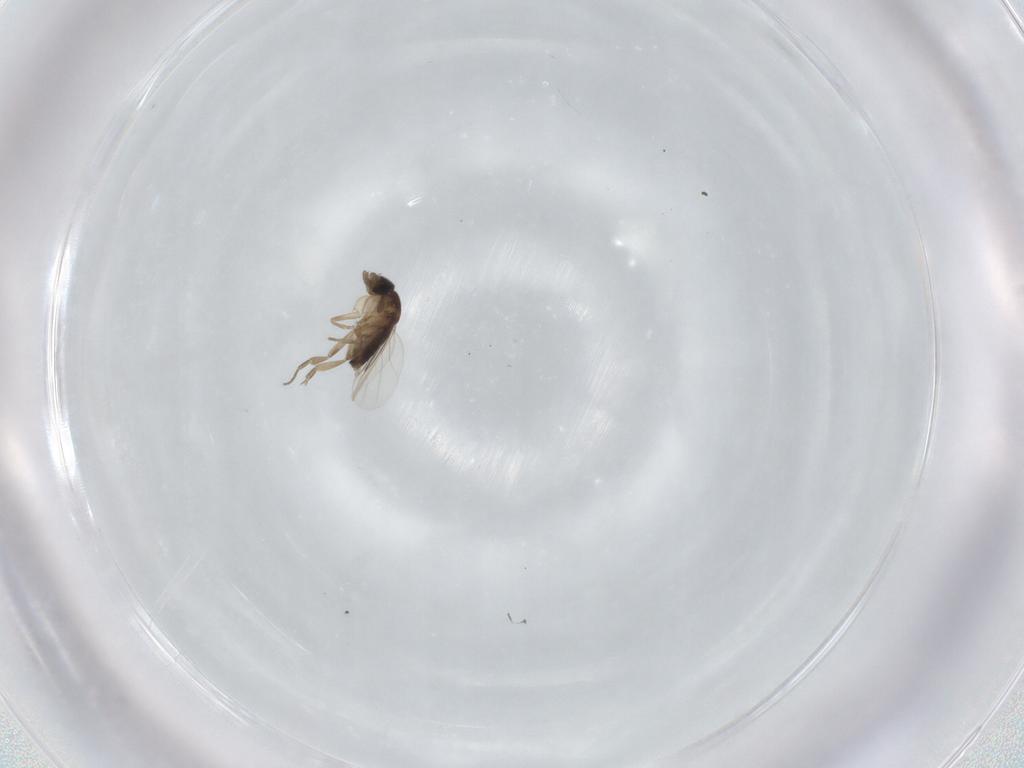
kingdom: Animalia
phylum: Arthropoda
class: Insecta
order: Diptera
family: Phoridae
